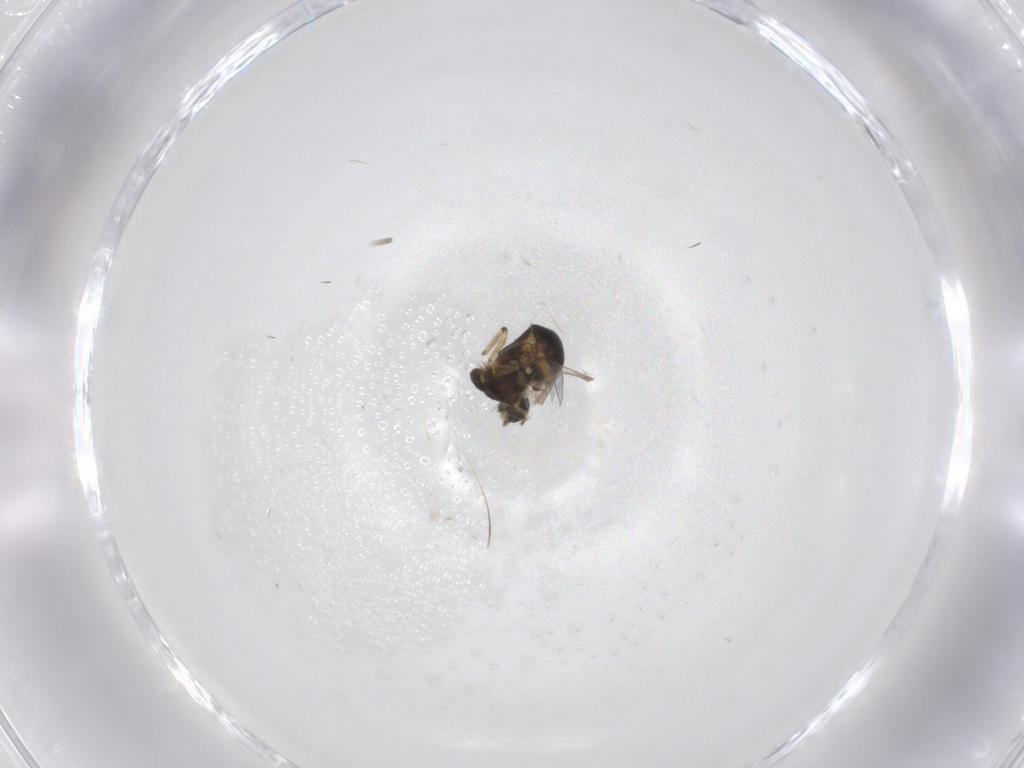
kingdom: Animalia
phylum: Arthropoda
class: Insecta
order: Diptera
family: Ceratopogonidae
